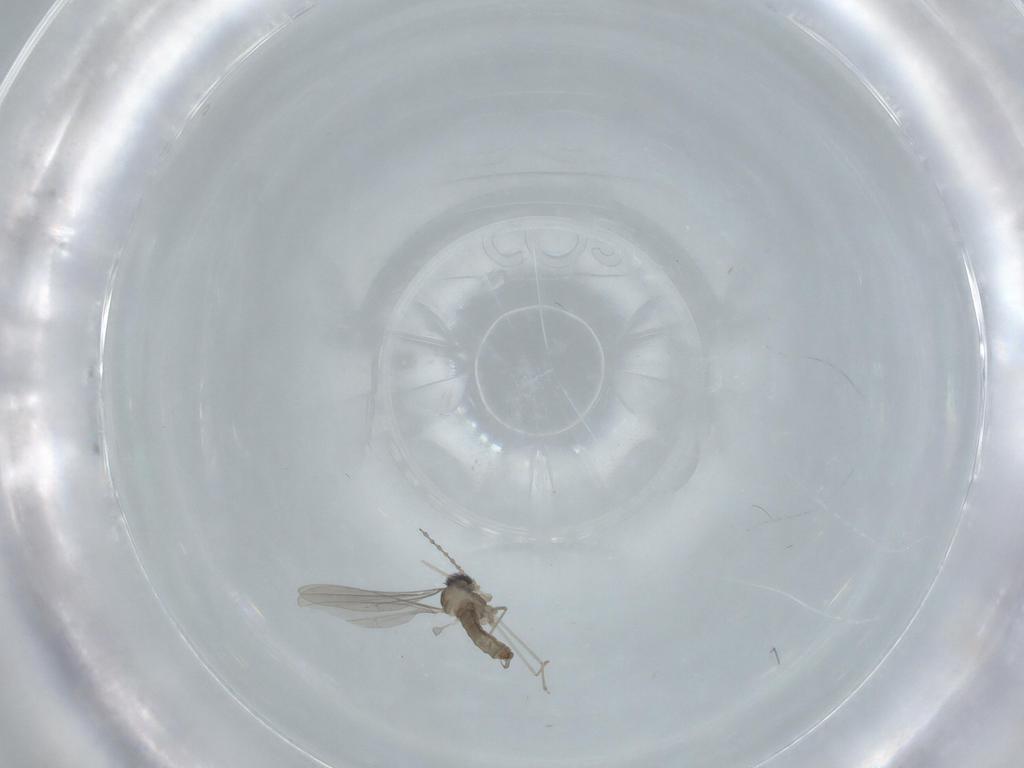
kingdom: Animalia
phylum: Arthropoda
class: Insecta
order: Diptera
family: Cecidomyiidae
